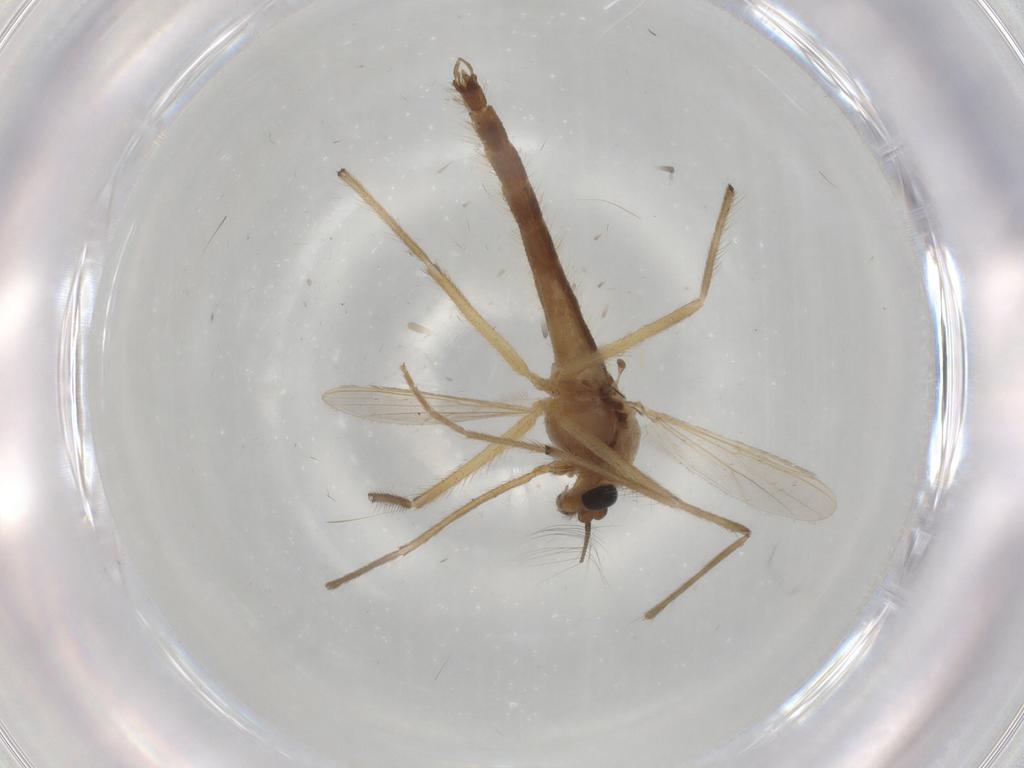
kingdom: Animalia
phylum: Arthropoda
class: Insecta
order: Diptera
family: Chironomidae
